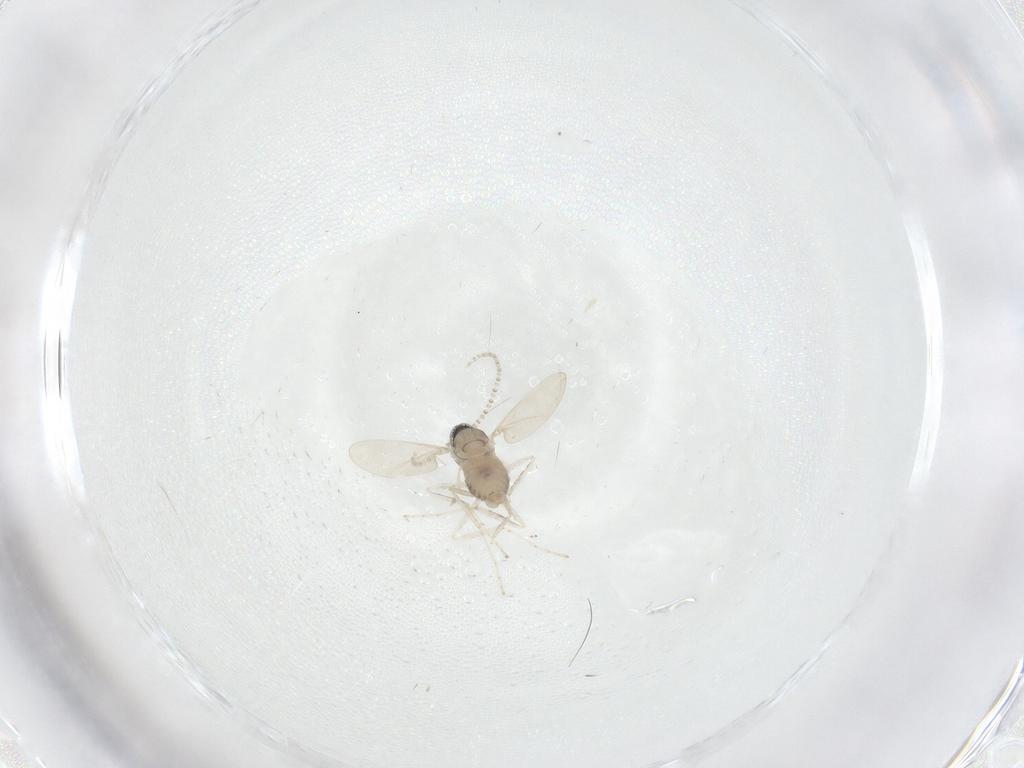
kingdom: Animalia
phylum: Arthropoda
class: Insecta
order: Diptera
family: Cecidomyiidae
